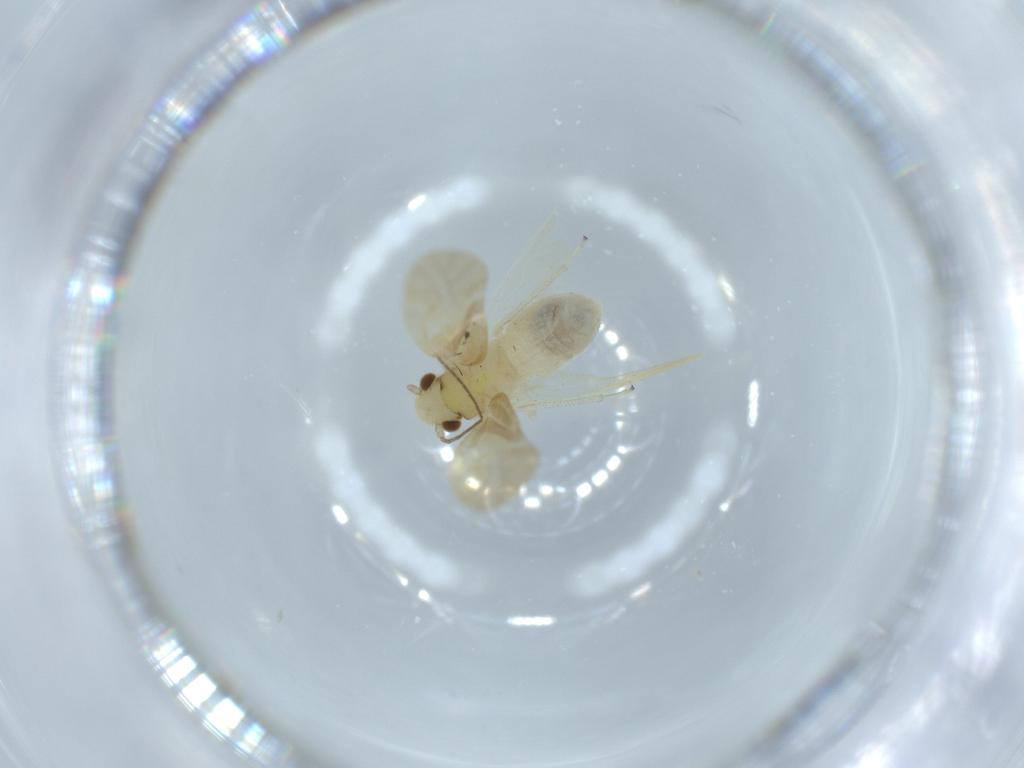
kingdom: Animalia
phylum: Arthropoda
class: Insecta
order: Psocodea
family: Caeciliusidae
